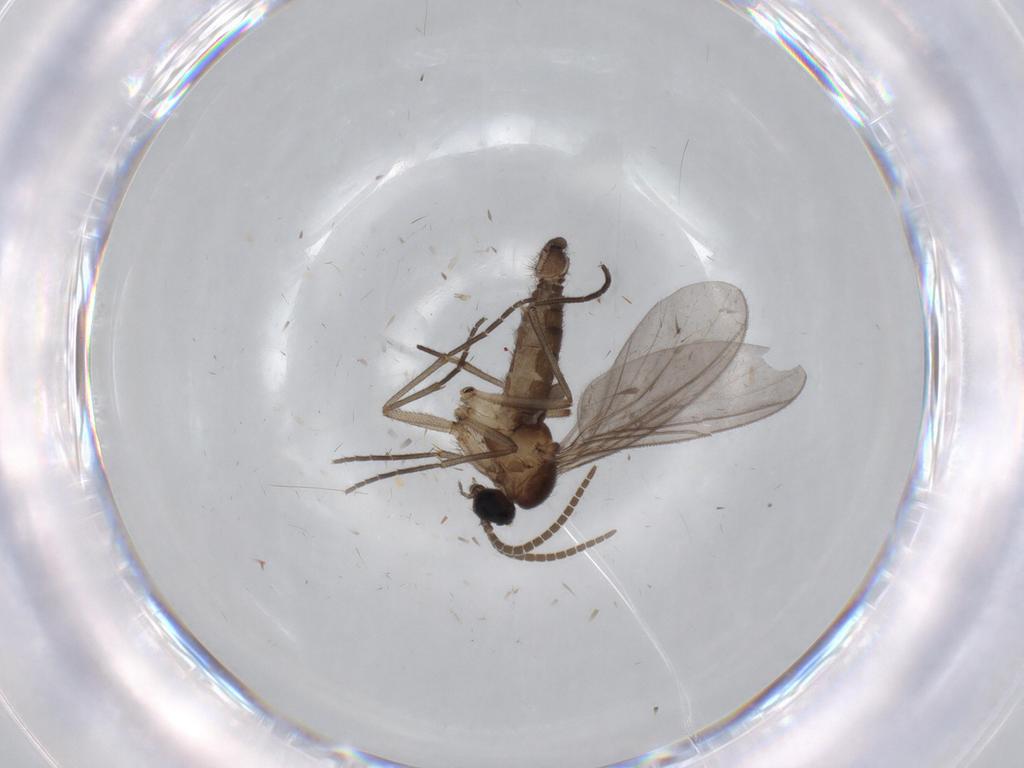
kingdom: Animalia
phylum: Arthropoda
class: Insecta
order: Diptera
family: Cecidomyiidae
